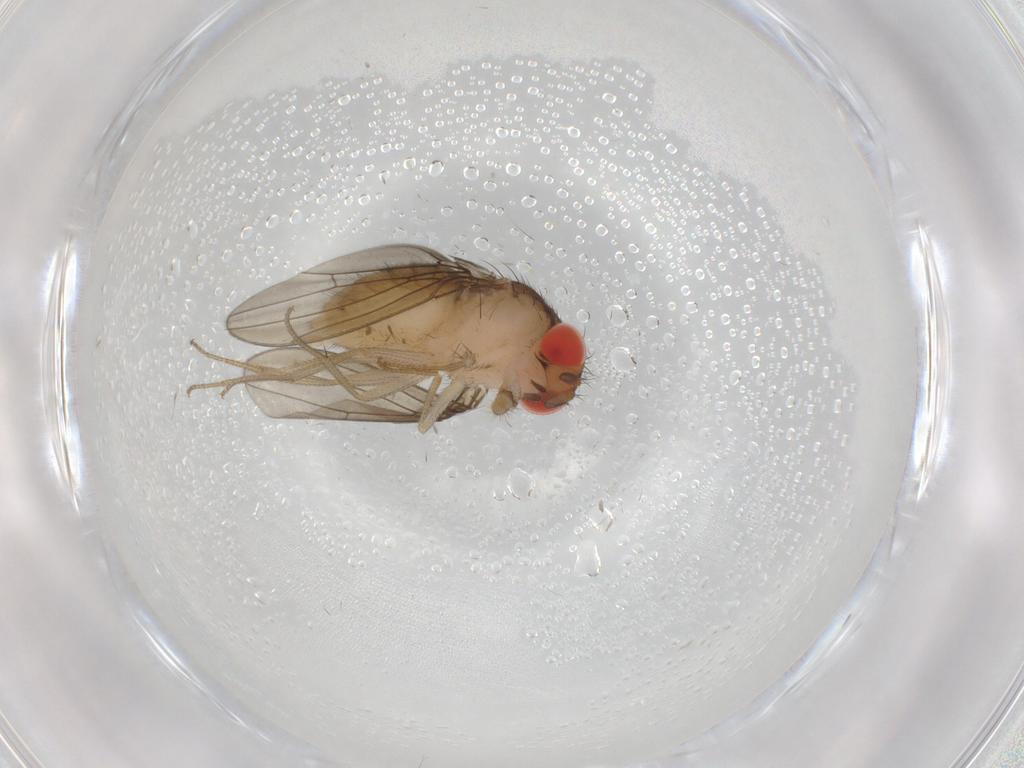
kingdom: Animalia
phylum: Arthropoda
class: Insecta
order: Diptera
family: Drosophilidae
